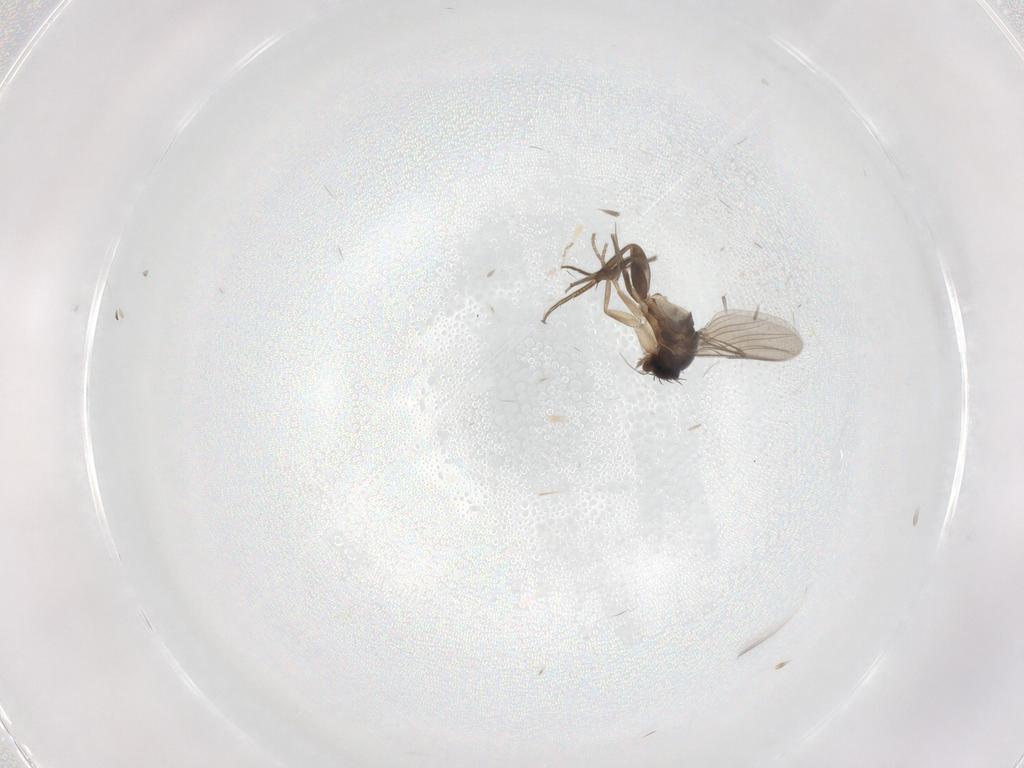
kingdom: Animalia
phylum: Arthropoda
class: Insecta
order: Diptera
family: Phoridae
